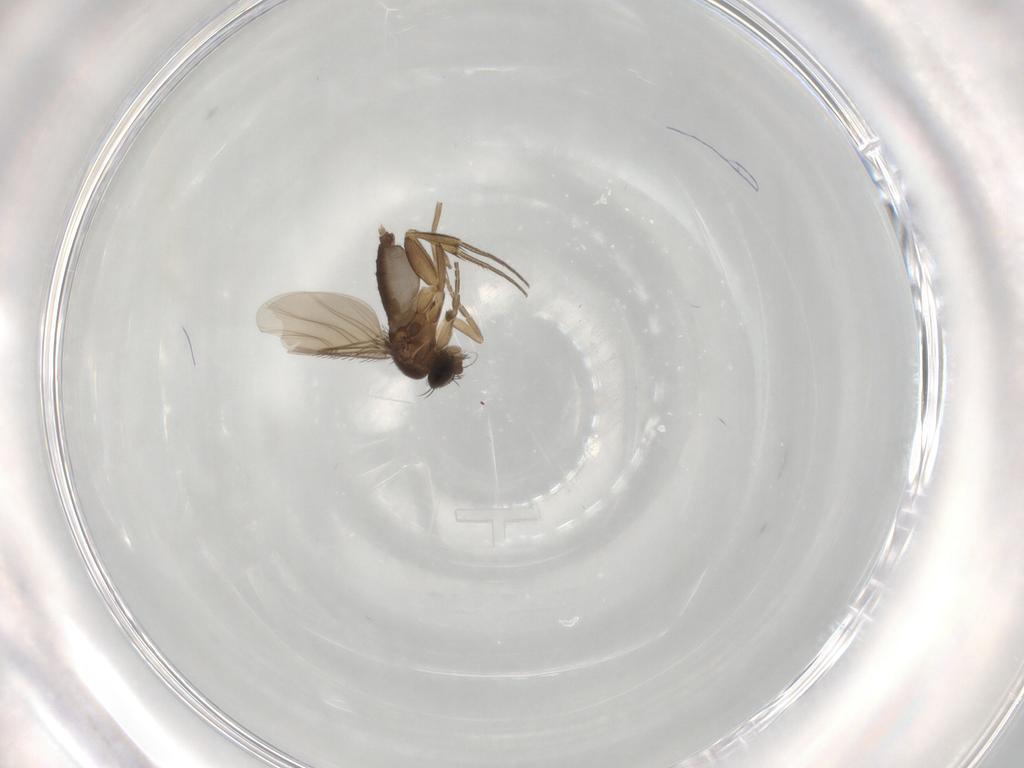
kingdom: Animalia
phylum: Arthropoda
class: Insecta
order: Diptera
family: Phoridae
